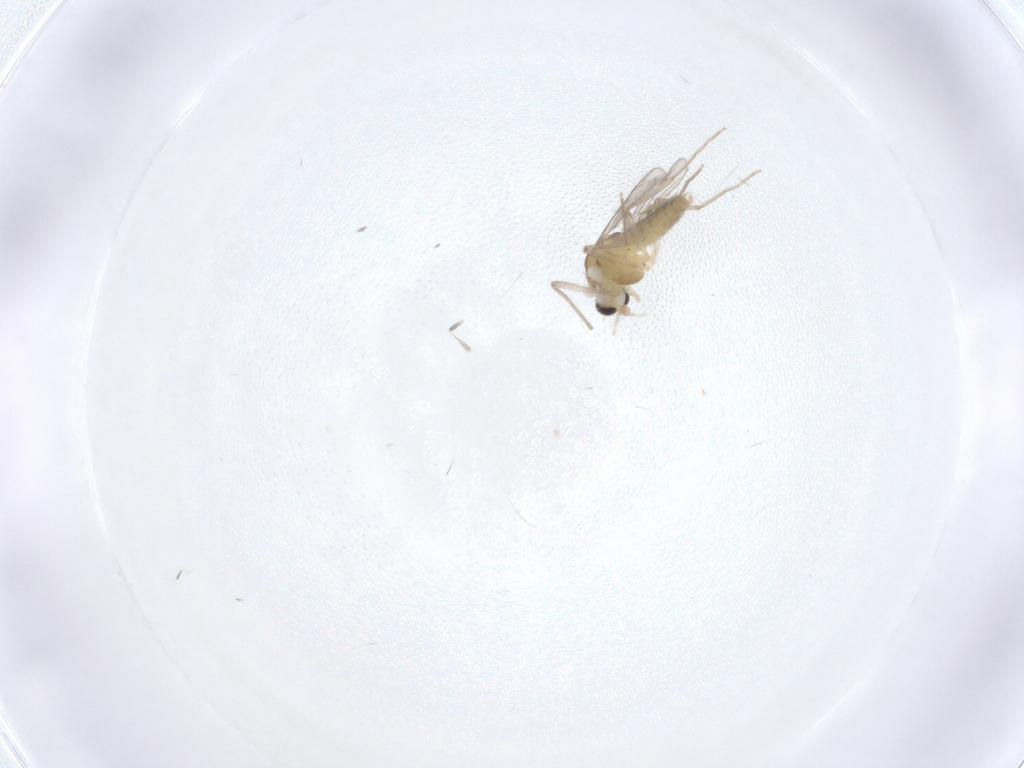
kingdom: Animalia
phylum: Arthropoda
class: Insecta
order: Diptera
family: Chironomidae
